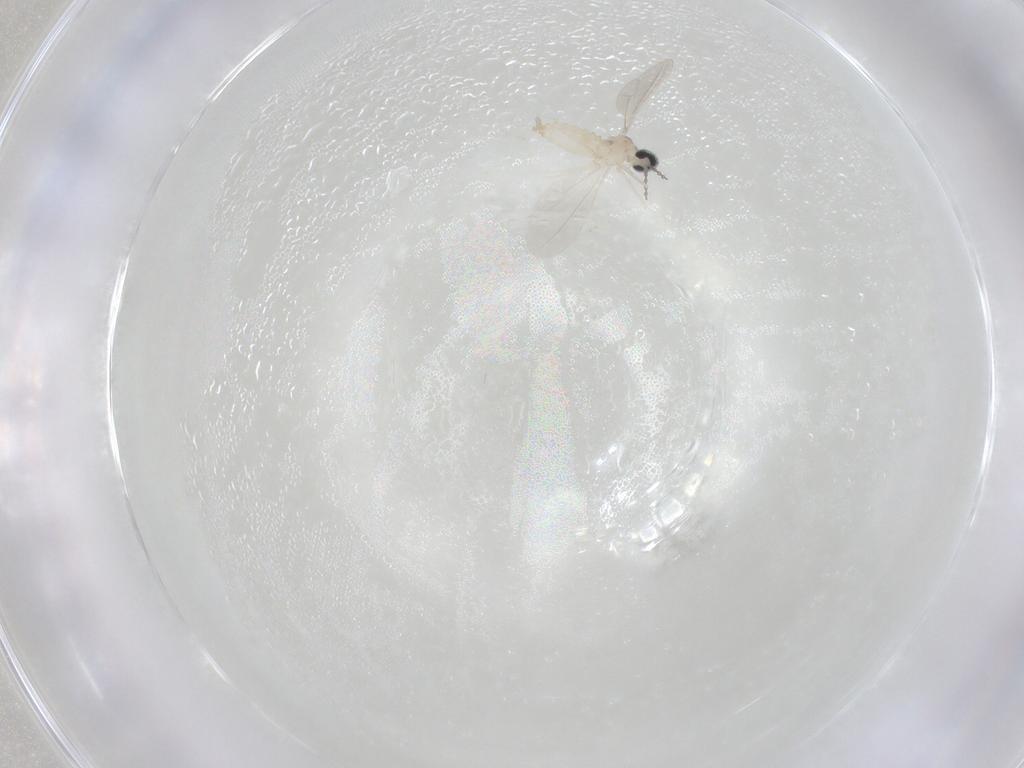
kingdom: Animalia
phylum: Arthropoda
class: Insecta
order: Diptera
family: Cecidomyiidae
